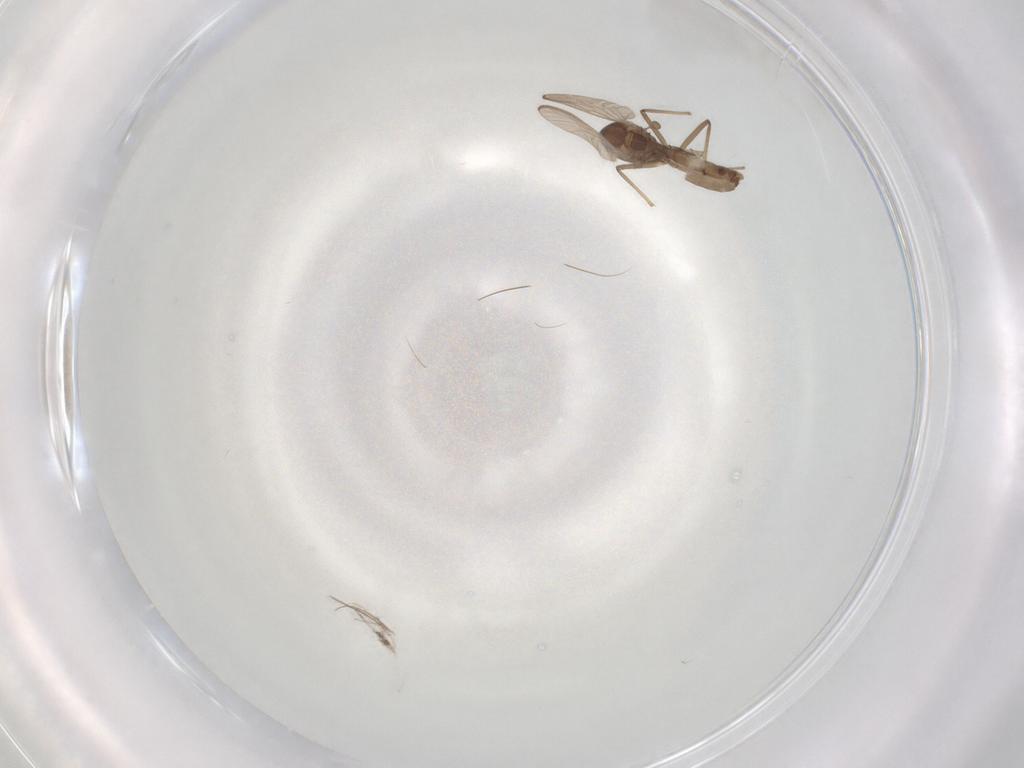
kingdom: Animalia
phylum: Arthropoda
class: Insecta
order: Diptera
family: Chironomidae
